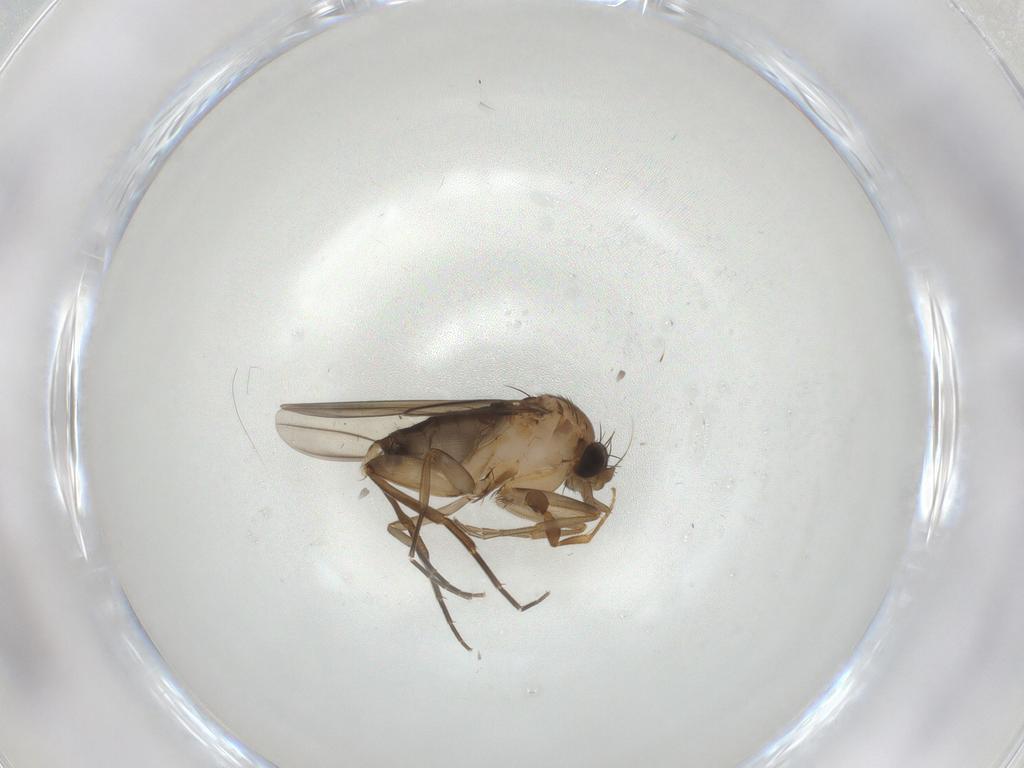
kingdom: Animalia
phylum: Arthropoda
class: Insecta
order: Diptera
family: Phoridae
